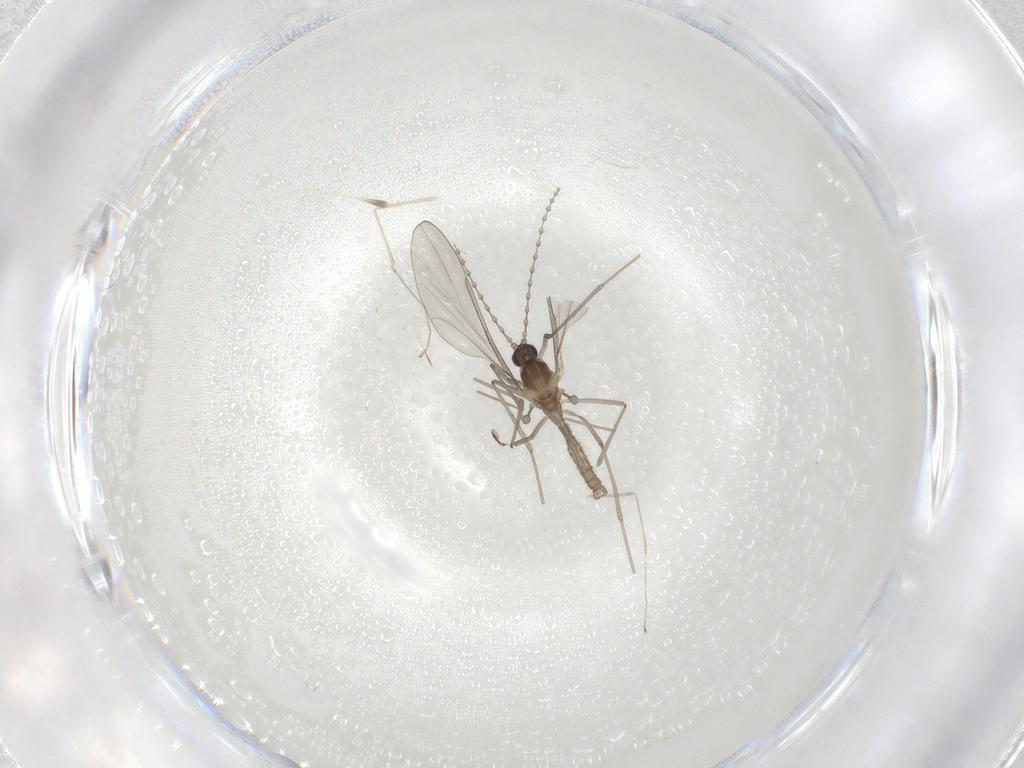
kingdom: Animalia
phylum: Arthropoda
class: Insecta
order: Diptera
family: Cecidomyiidae
